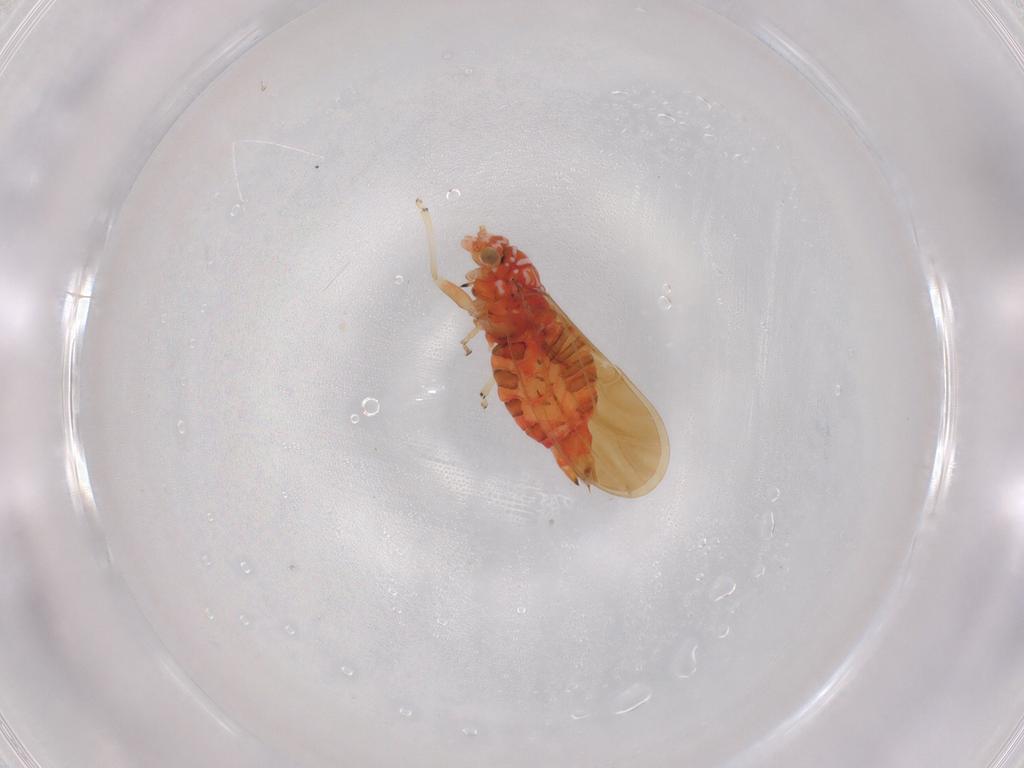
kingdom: Animalia
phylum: Arthropoda
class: Insecta
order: Hemiptera
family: Psyllidae
